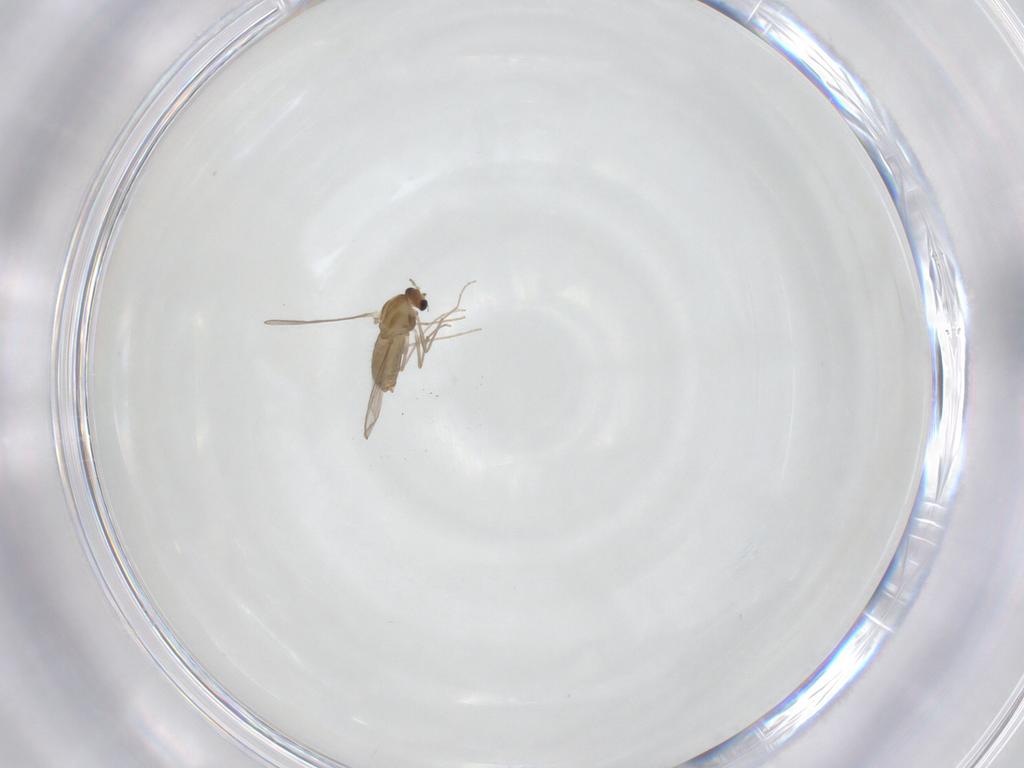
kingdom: Animalia
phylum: Arthropoda
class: Insecta
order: Diptera
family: Chironomidae
